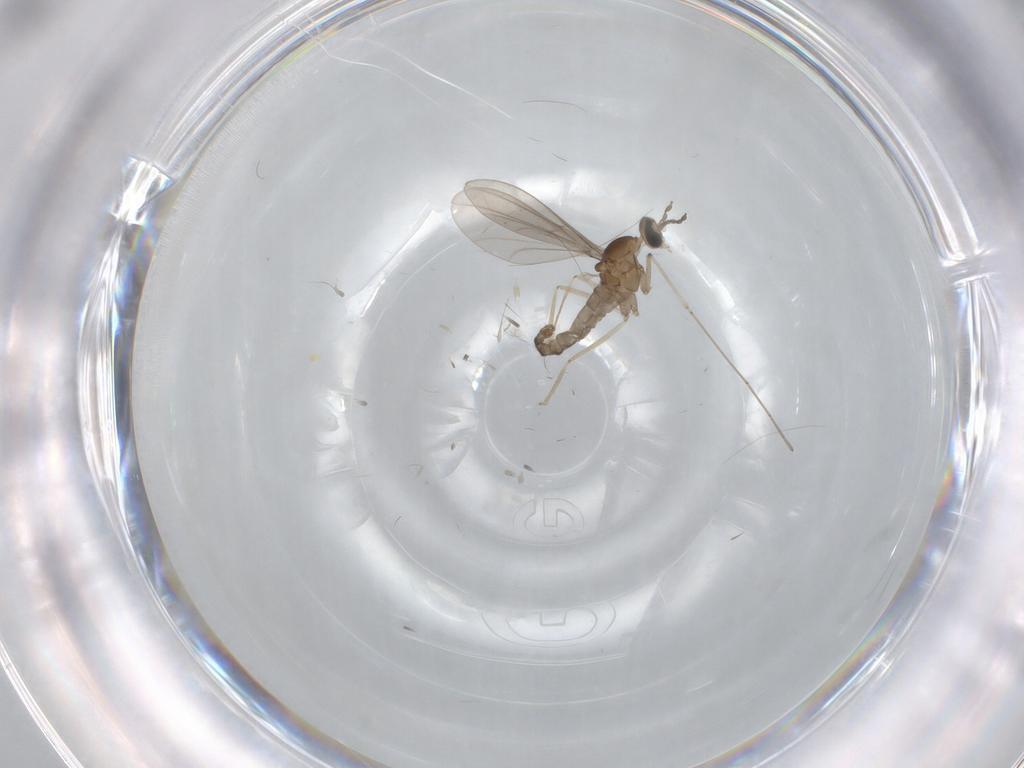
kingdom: Animalia
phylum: Arthropoda
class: Insecta
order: Diptera
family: Cecidomyiidae
